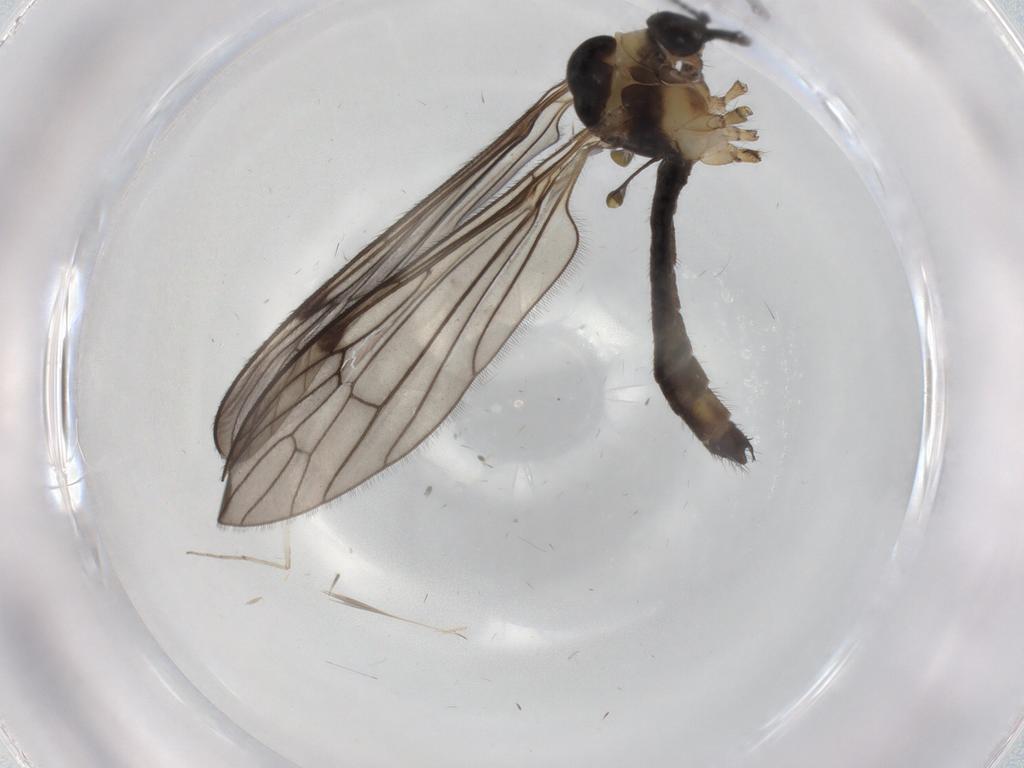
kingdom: Animalia
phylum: Arthropoda
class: Insecta
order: Diptera
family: Limoniidae
